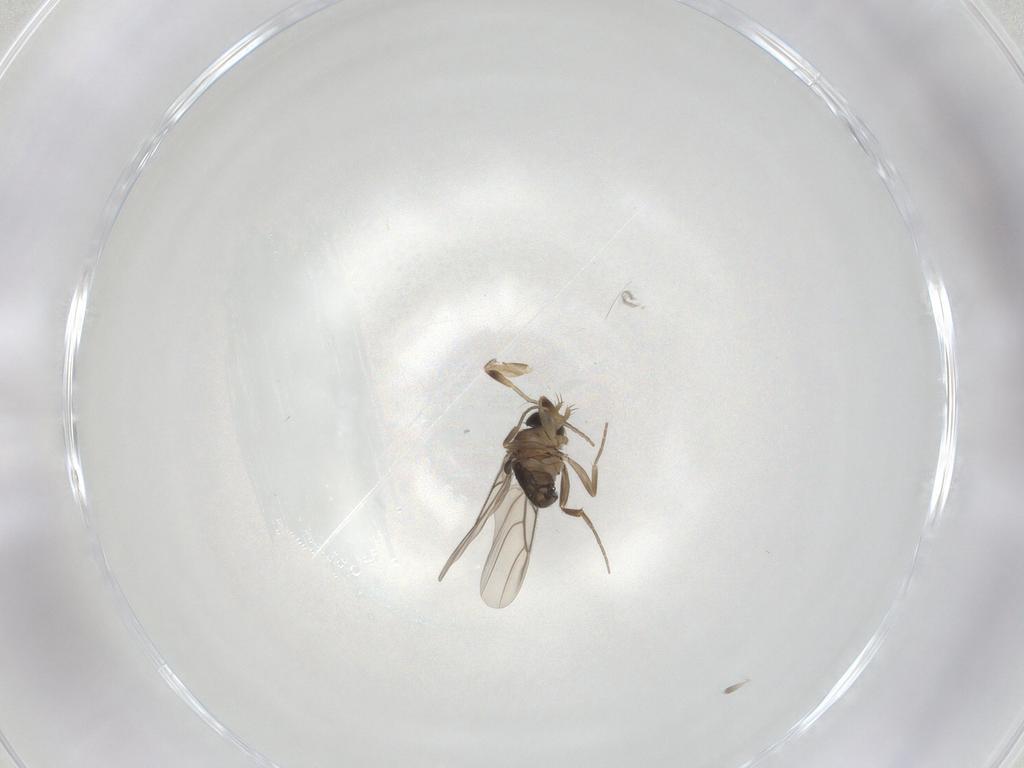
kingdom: Animalia
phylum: Arthropoda
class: Insecta
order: Diptera
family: Phoridae
